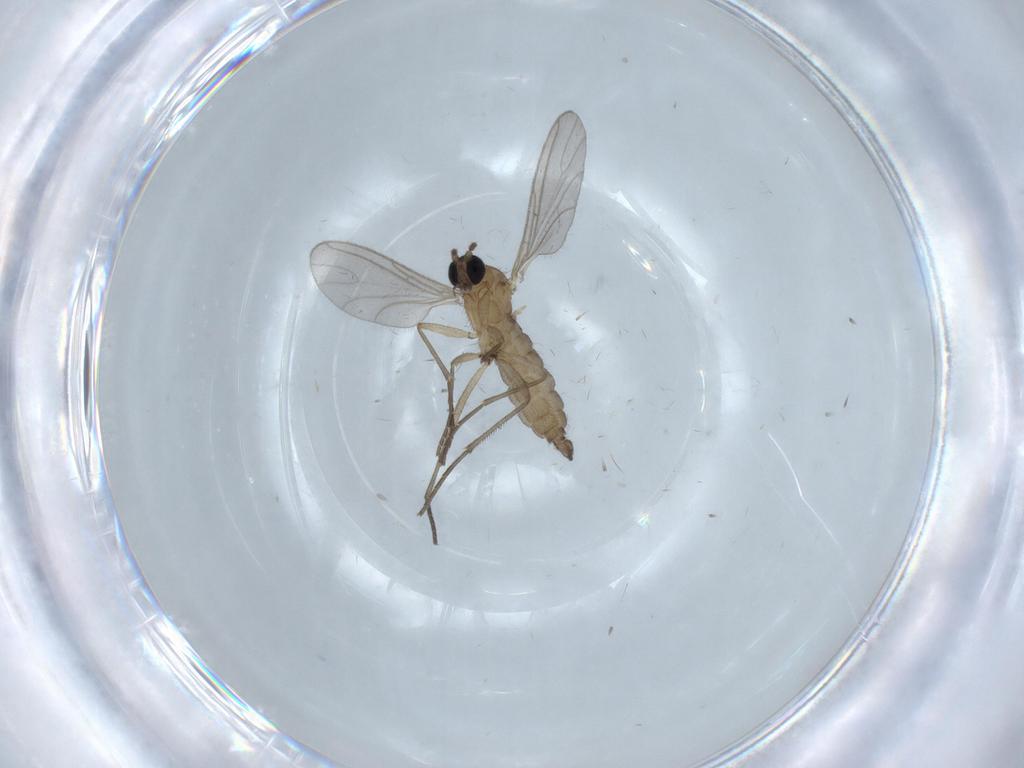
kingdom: Animalia
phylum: Arthropoda
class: Insecta
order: Diptera
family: Sciaridae
